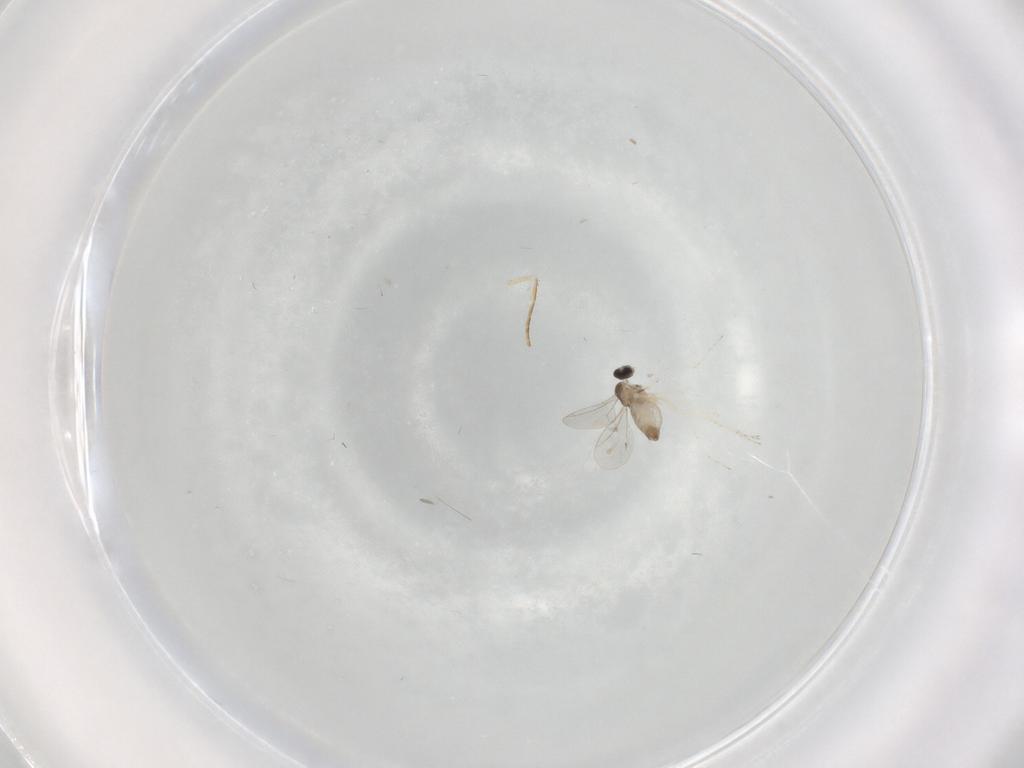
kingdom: Animalia
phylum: Arthropoda
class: Insecta
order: Diptera
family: Cecidomyiidae
